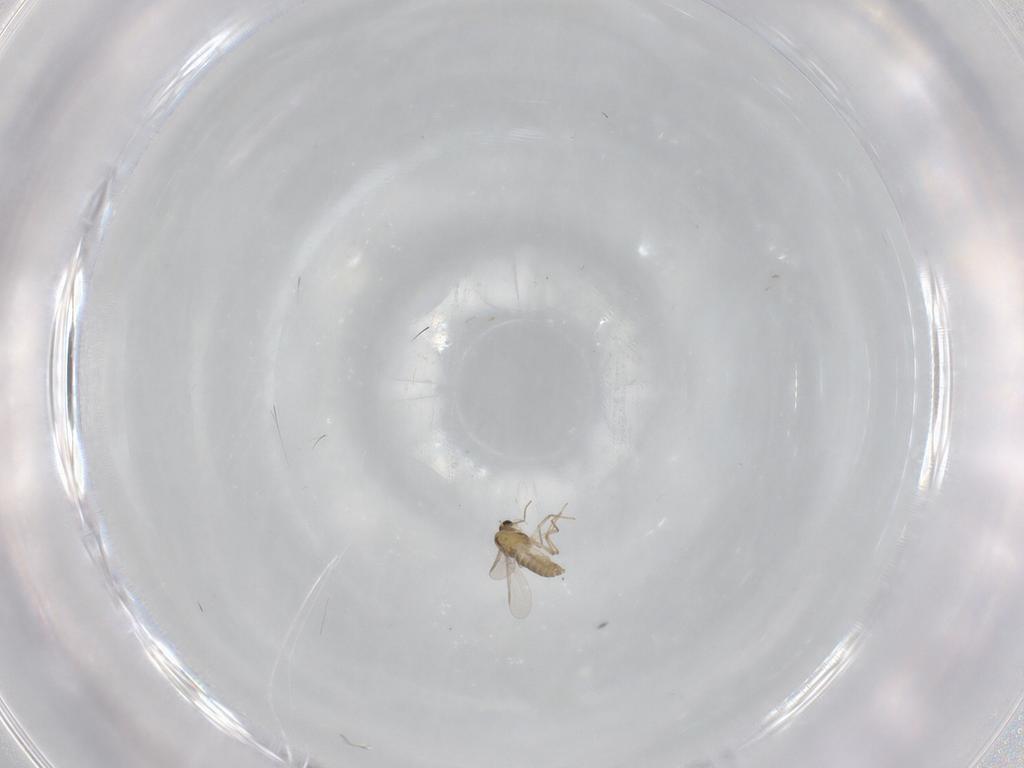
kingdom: Animalia
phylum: Arthropoda
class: Insecta
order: Diptera
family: Chironomidae
